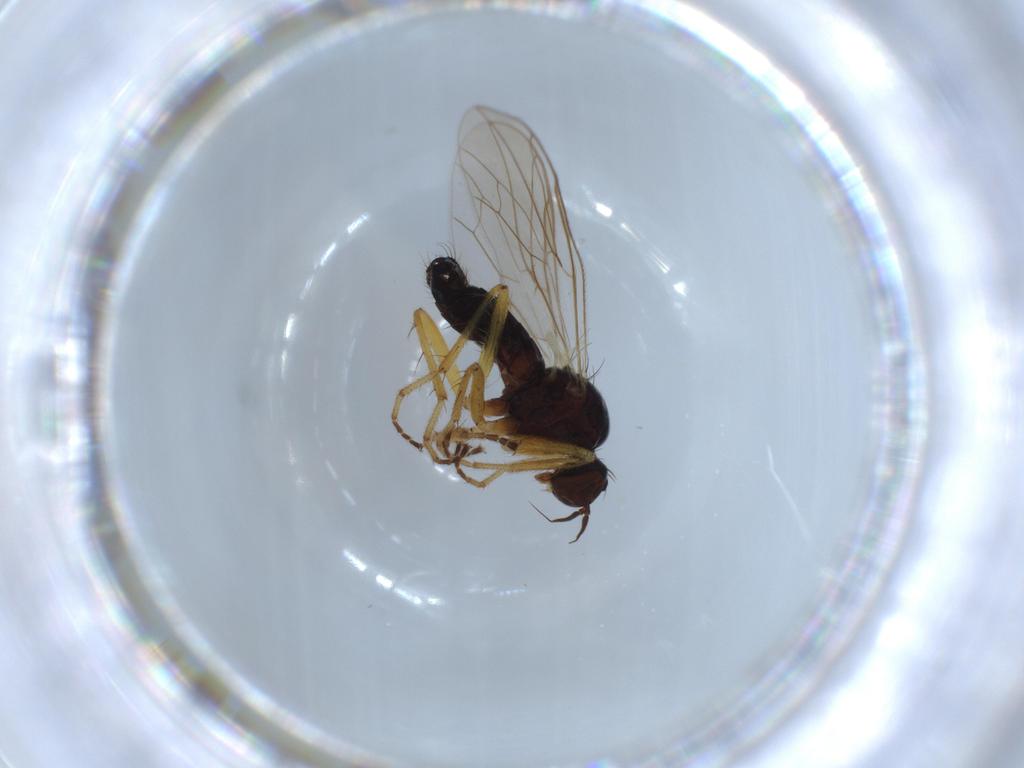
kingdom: Animalia
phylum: Arthropoda
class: Insecta
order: Diptera
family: Hybotidae
